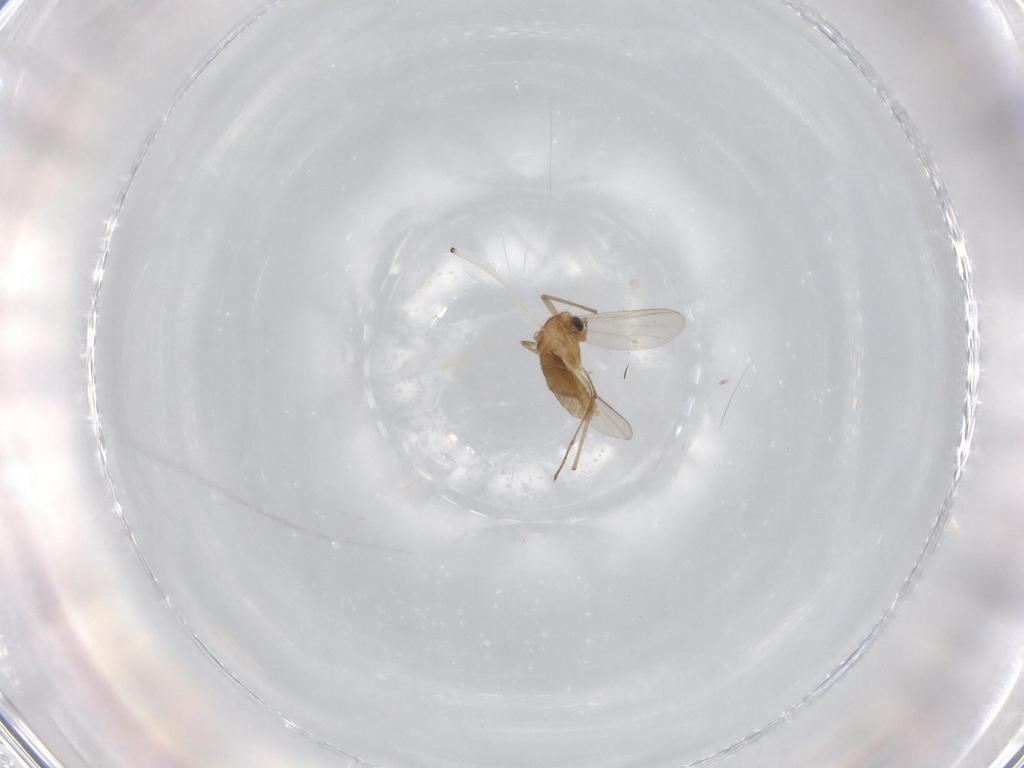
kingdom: Animalia
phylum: Arthropoda
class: Insecta
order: Diptera
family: Chironomidae
